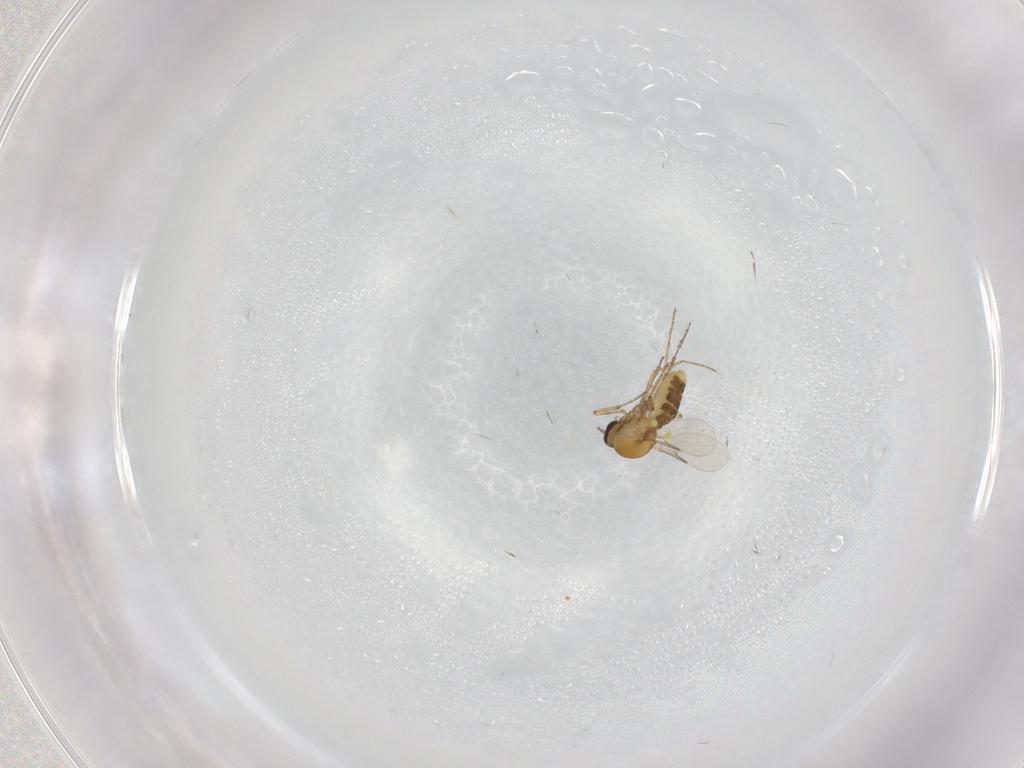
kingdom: Animalia
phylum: Arthropoda
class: Insecta
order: Diptera
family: Cecidomyiidae
